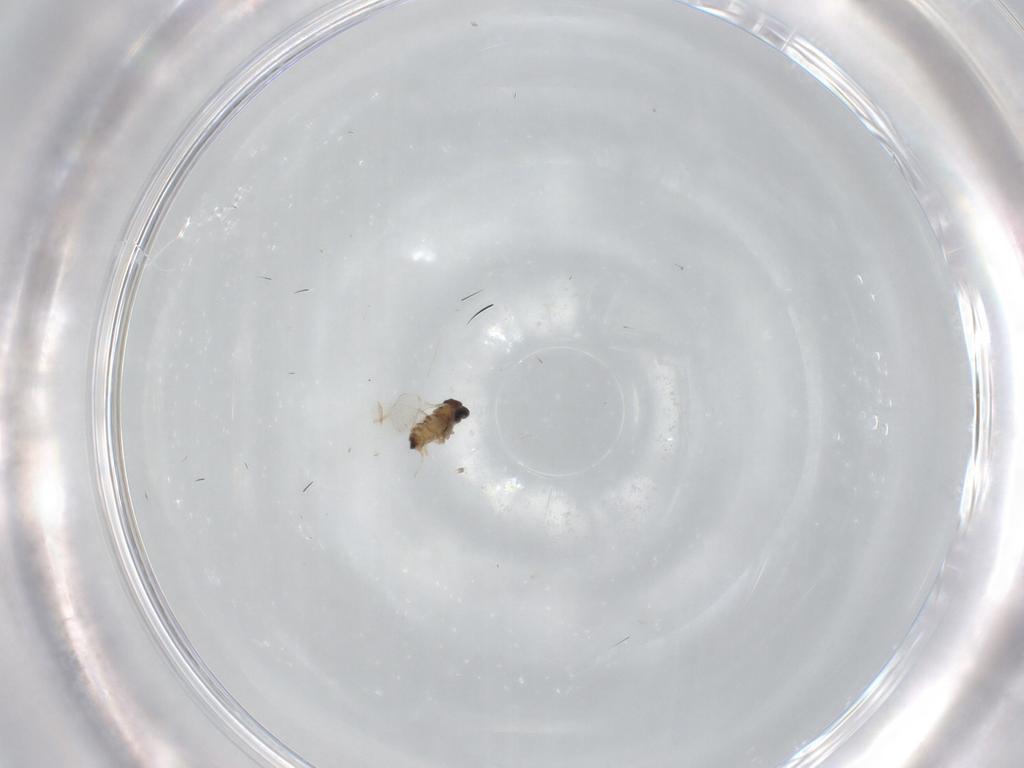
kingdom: Animalia
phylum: Arthropoda
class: Insecta
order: Diptera
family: Cecidomyiidae
